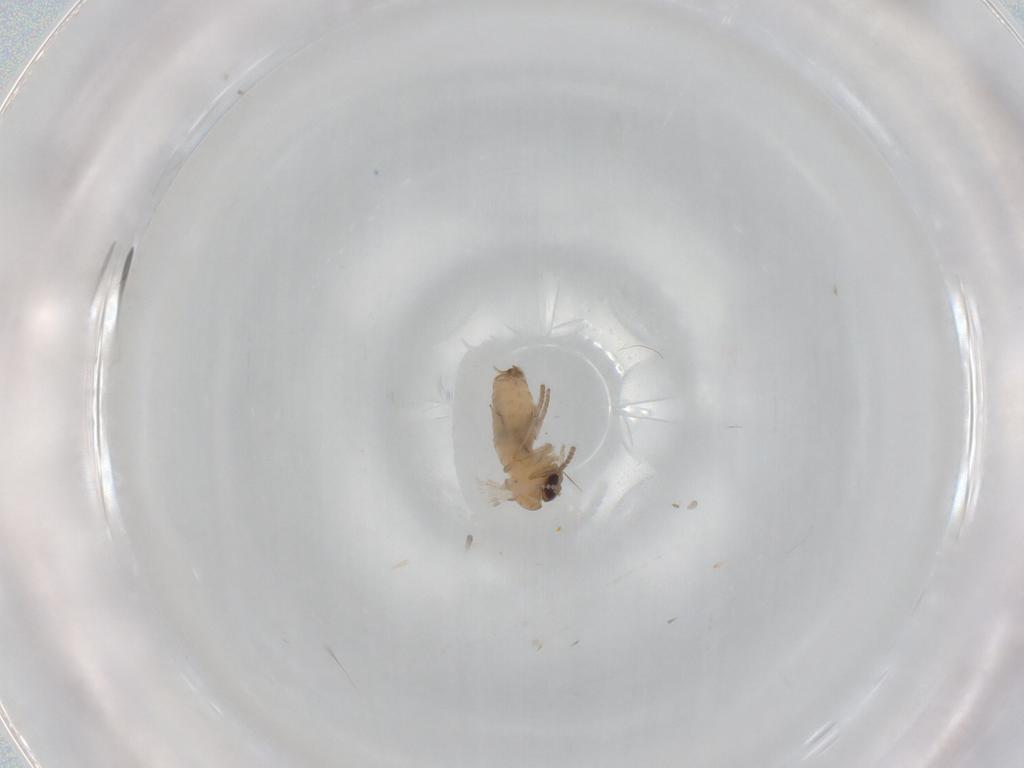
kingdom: Animalia
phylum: Arthropoda
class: Insecta
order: Diptera
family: Psychodidae
